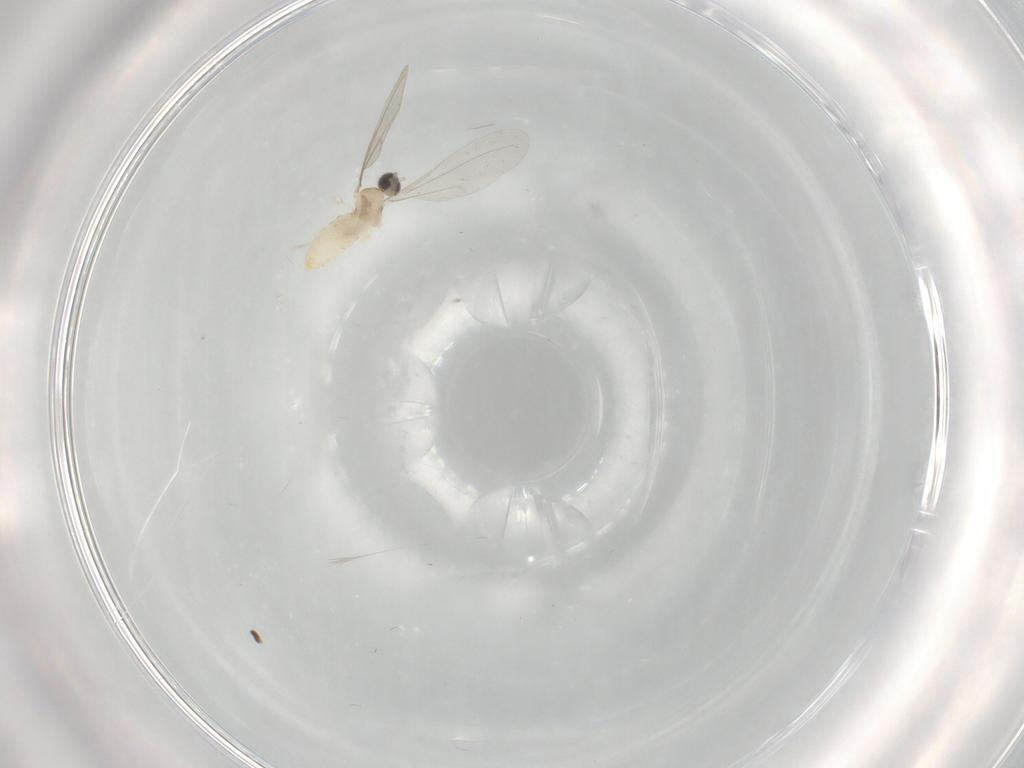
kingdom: Animalia
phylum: Arthropoda
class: Insecta
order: Diptera
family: Cecidomyiidae
